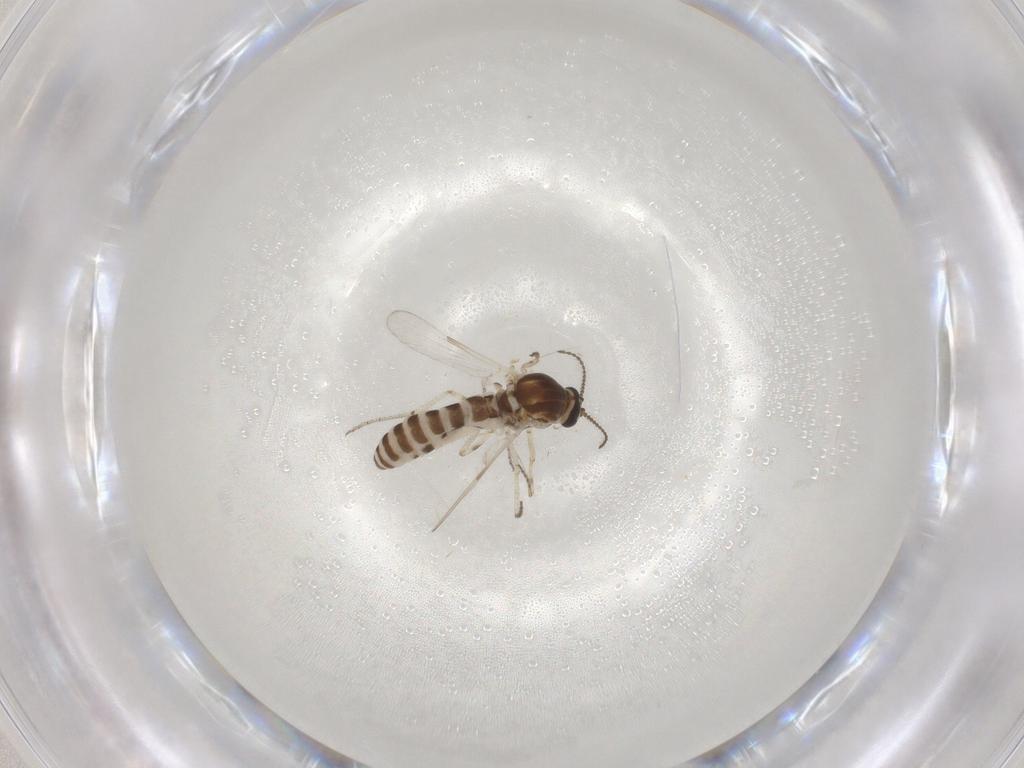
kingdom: Animalia
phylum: Arthropoda
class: Insecta
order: Diptera
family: Ceratopogonidae
